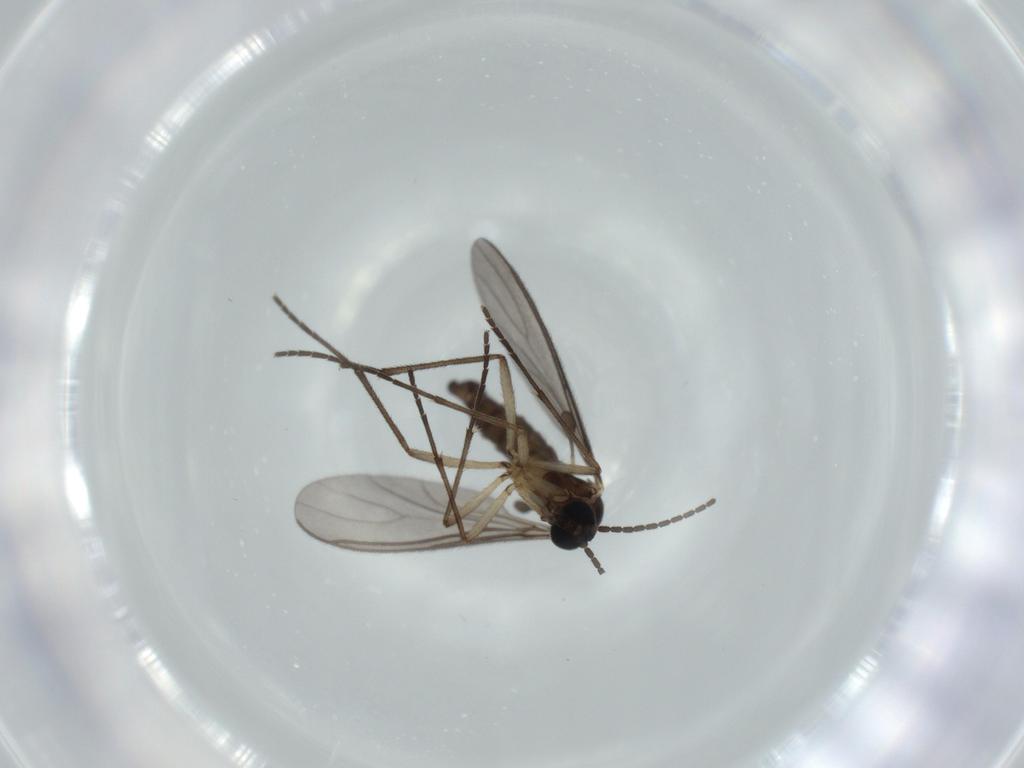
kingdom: Animalia
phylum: Arthropoda
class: Insecta
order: Diptera
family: Sciaridae
